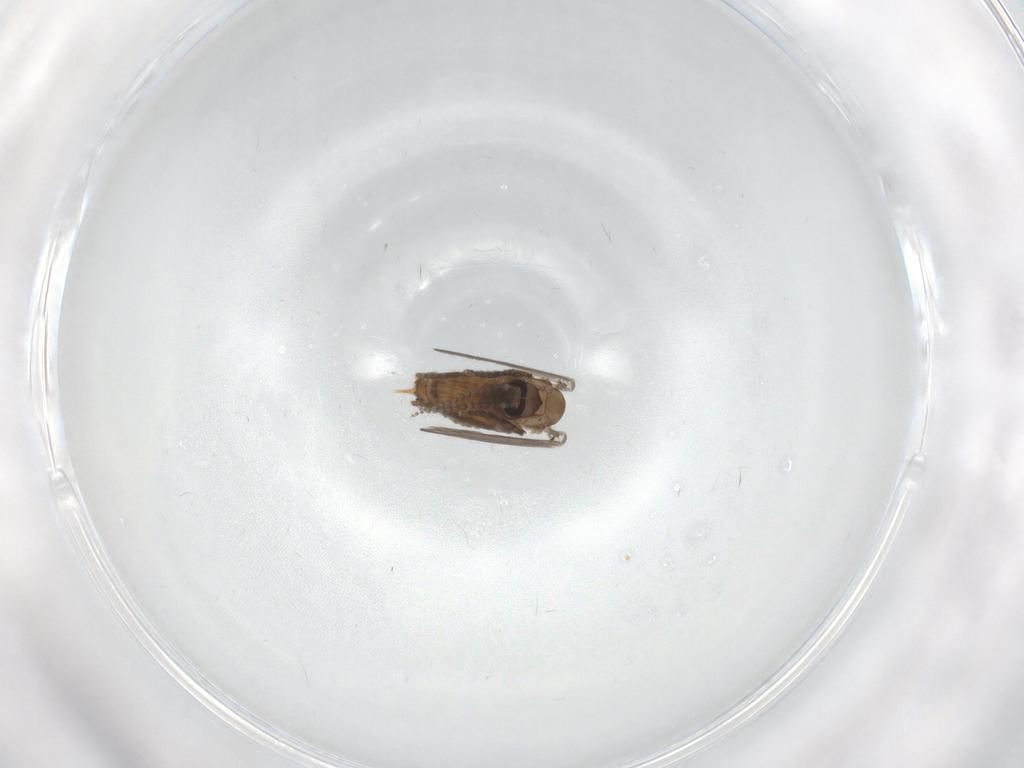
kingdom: Animalia
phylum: Arthropoda
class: Insecta
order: Diptera
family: Psychodidae
